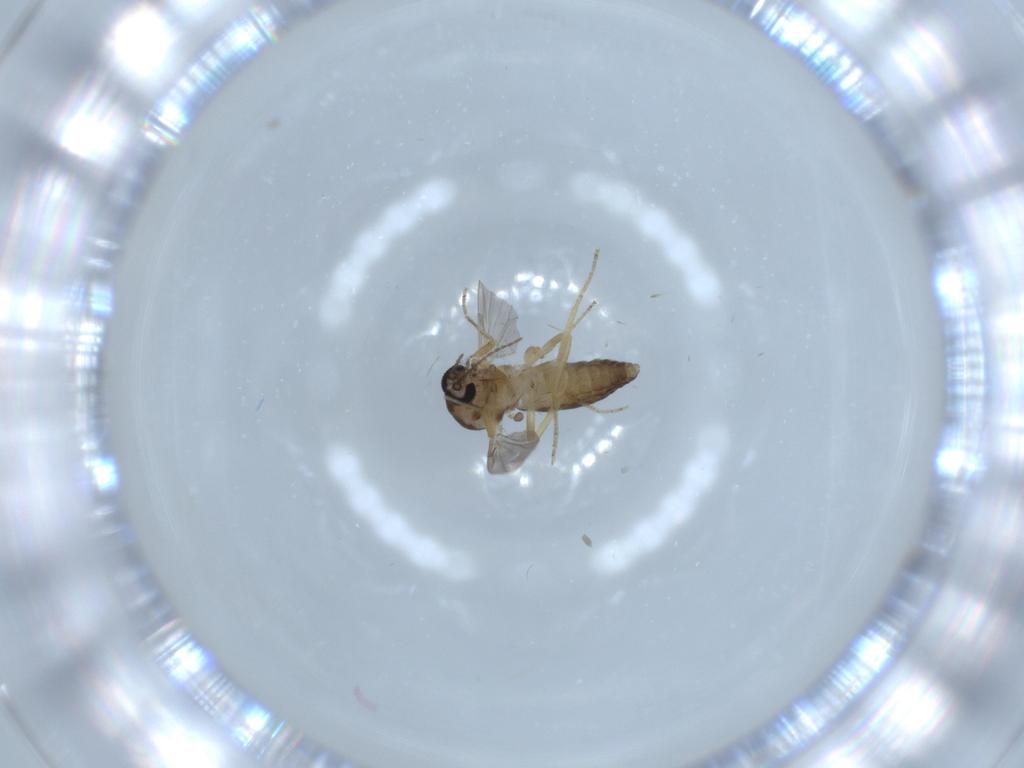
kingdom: Animalia
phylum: Arthropoda
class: Insecta
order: Diptera
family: Ceratopogonidae
